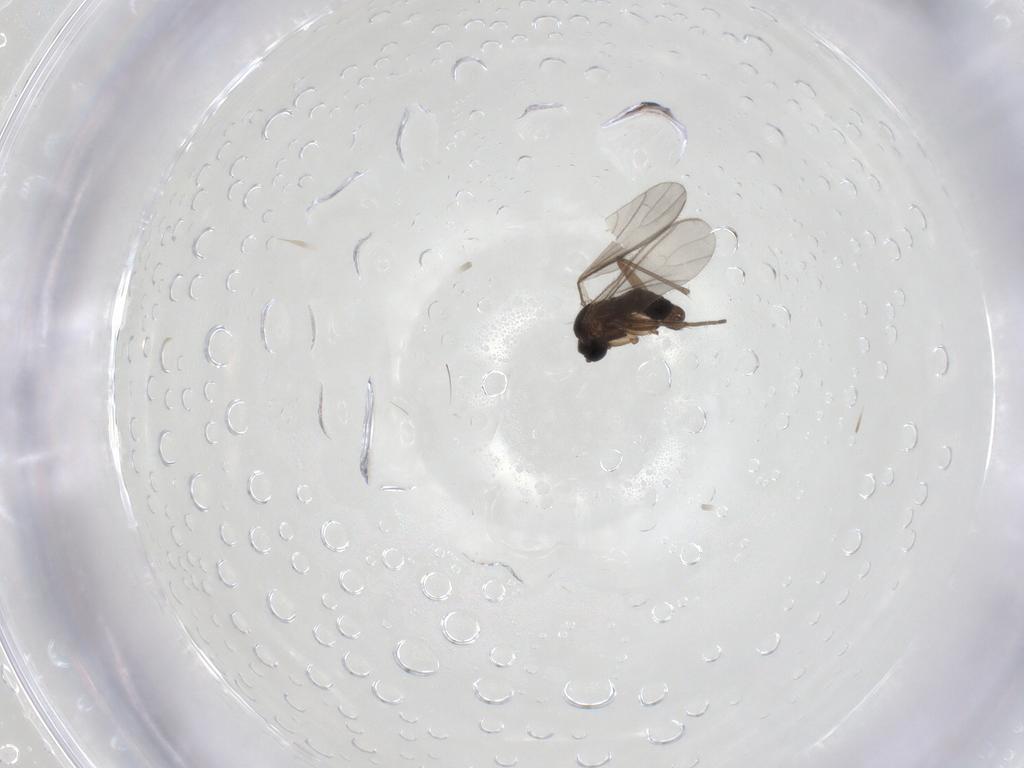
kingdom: Animalia
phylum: Arthropoda
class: Insecta
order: Diptera
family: Sciaridae
